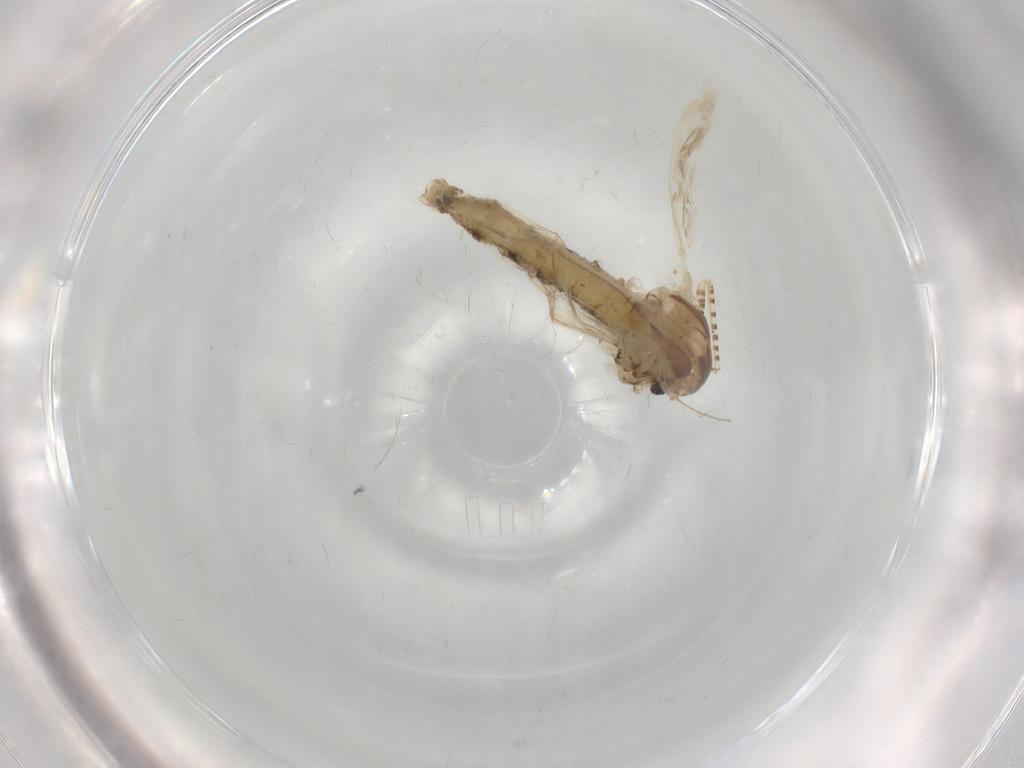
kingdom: Animalia
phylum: Arthropoda
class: Insecta
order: Diptera
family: Chaoboridae
